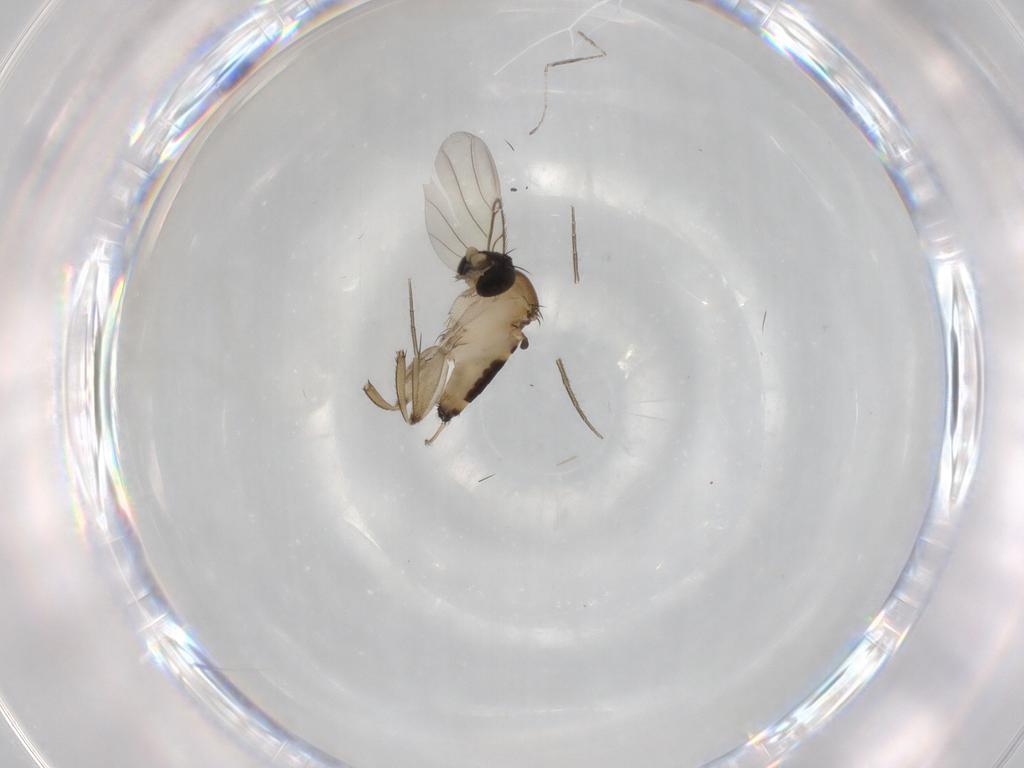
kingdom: Animalia
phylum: Arthropoda
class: Insecta
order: Diptera
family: Phoridae
